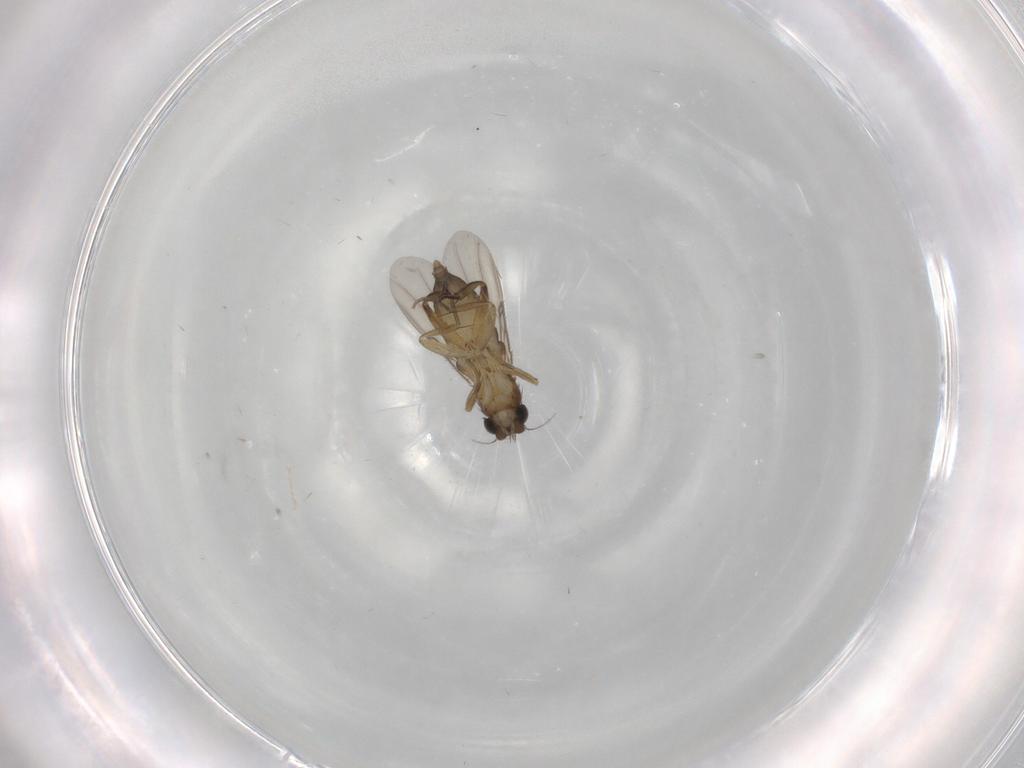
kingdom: Animalia
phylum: Arthropoda
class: Insecta
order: Diptera
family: Phoridae
